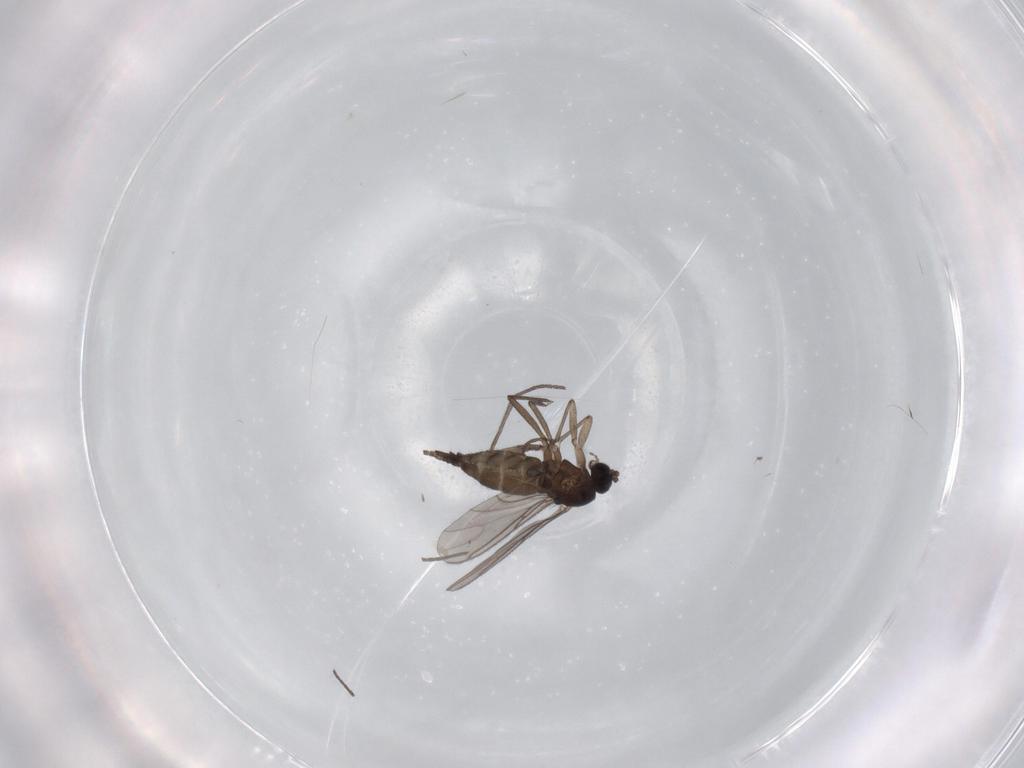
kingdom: Animalia
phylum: Arthropoda
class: Insecta
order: Diptera
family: Sciaridae
